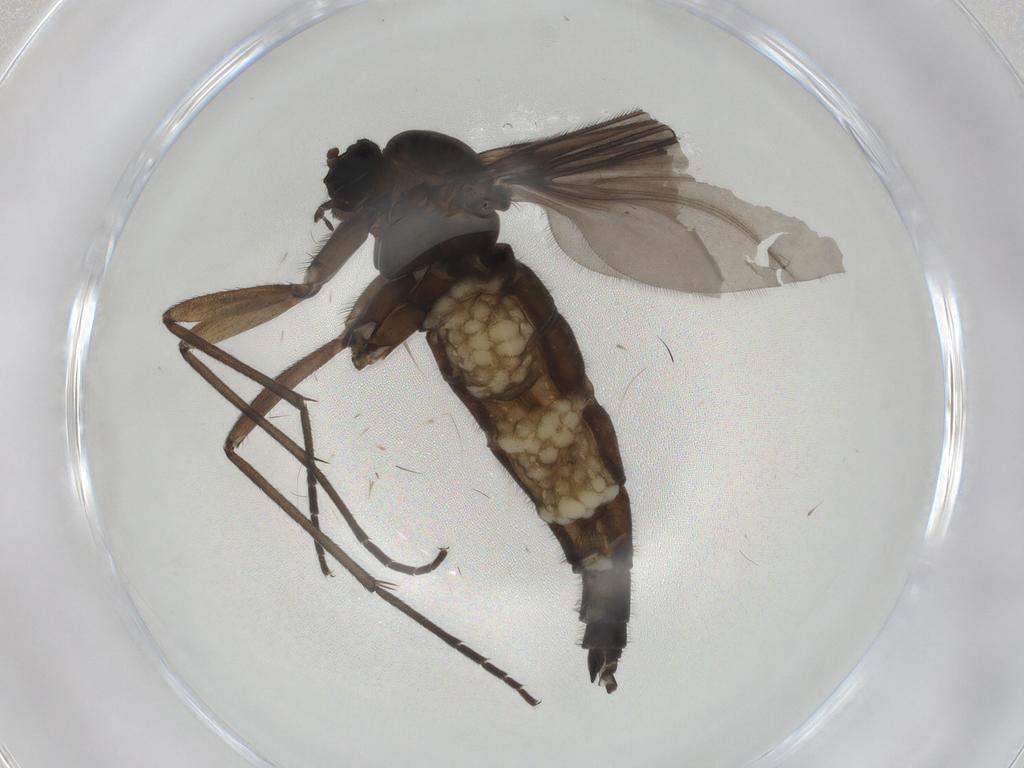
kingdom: Animalia
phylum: Arthropoda
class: Insecta
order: Diptera
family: Sciaridae
